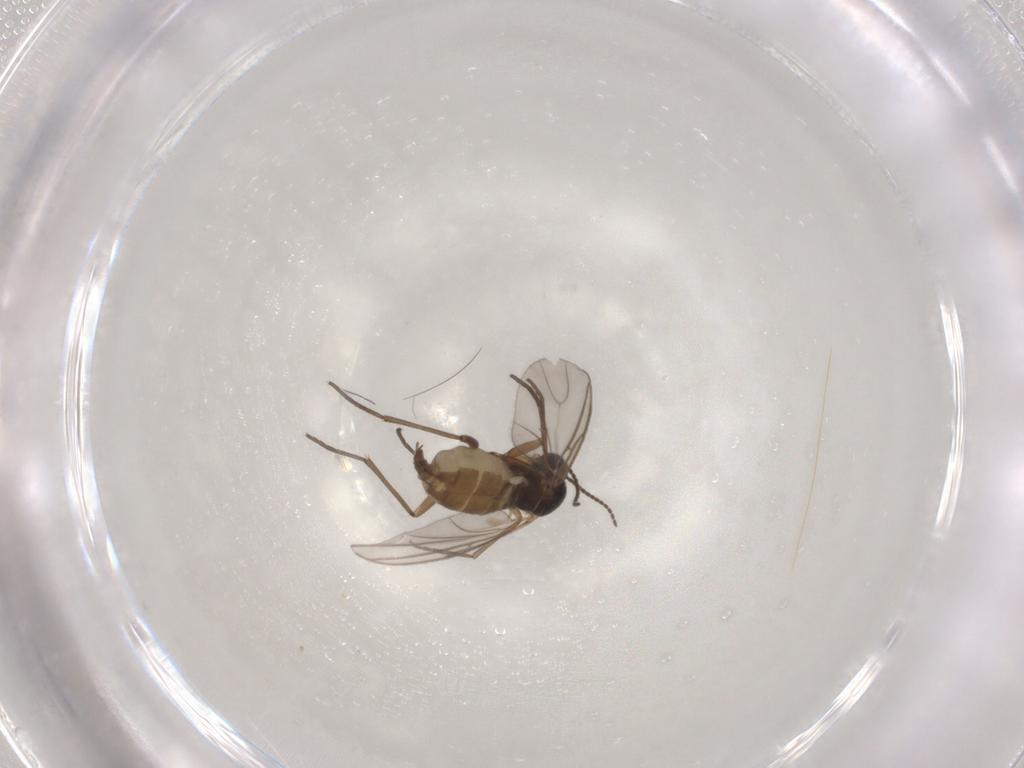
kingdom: Animalia
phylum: Arthropoda
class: Insecta
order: Diptera
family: Sciaridae
